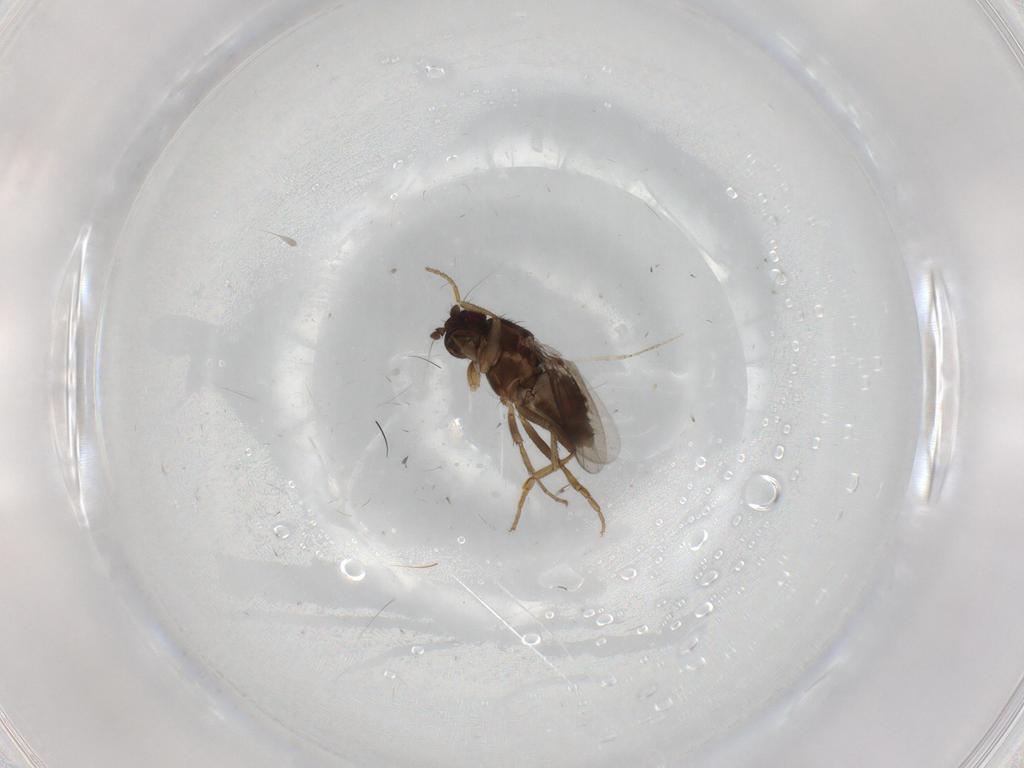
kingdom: Animalia
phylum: Arthropoda
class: Insecta
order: Diptera
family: Sphaeroceridae
